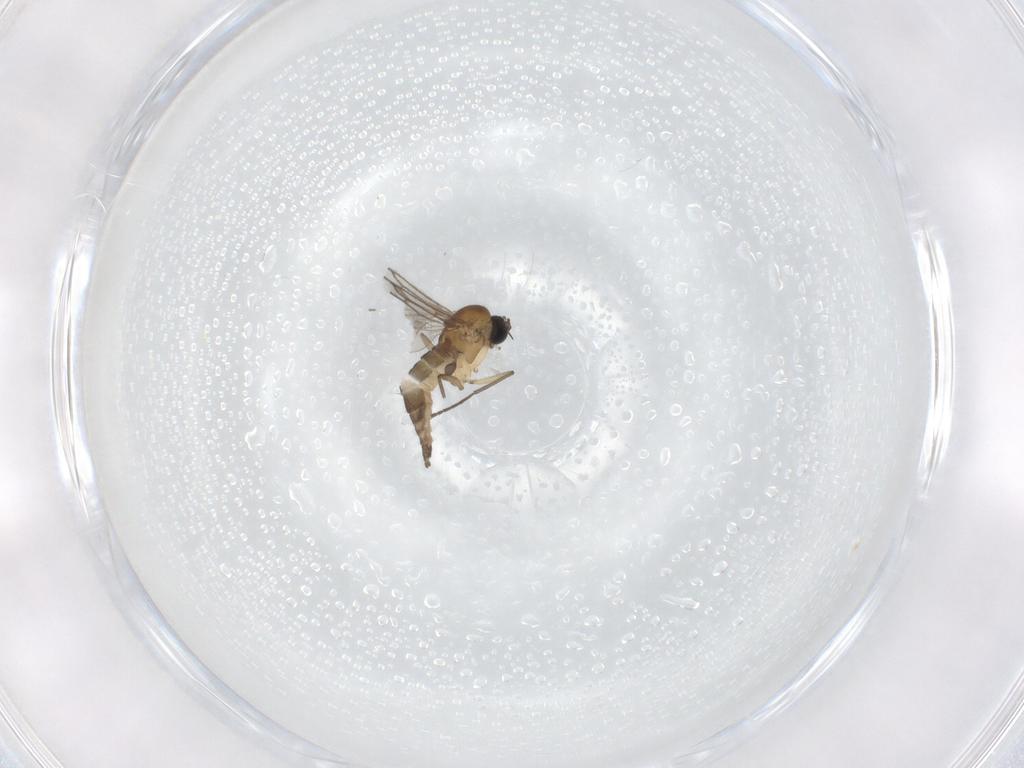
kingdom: Animalia
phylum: Arthropoda
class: Insecta
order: Diptera
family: Sciaridae
